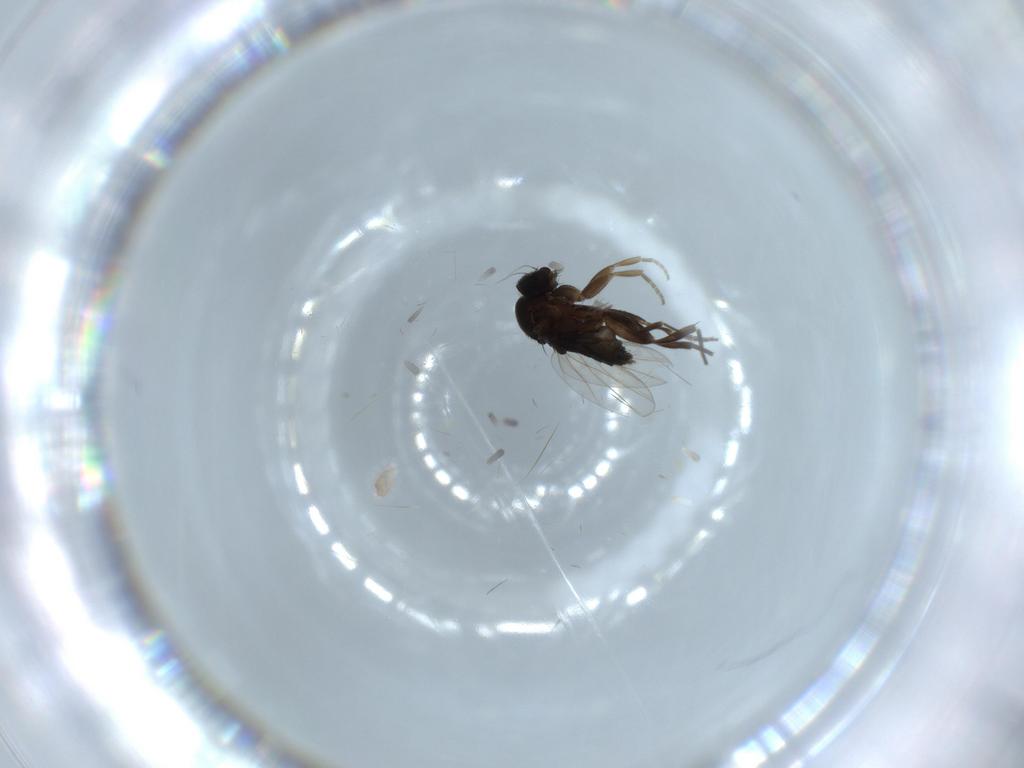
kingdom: Animalia
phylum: Arthropoda
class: Insecta
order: Diptera
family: Phoridae
